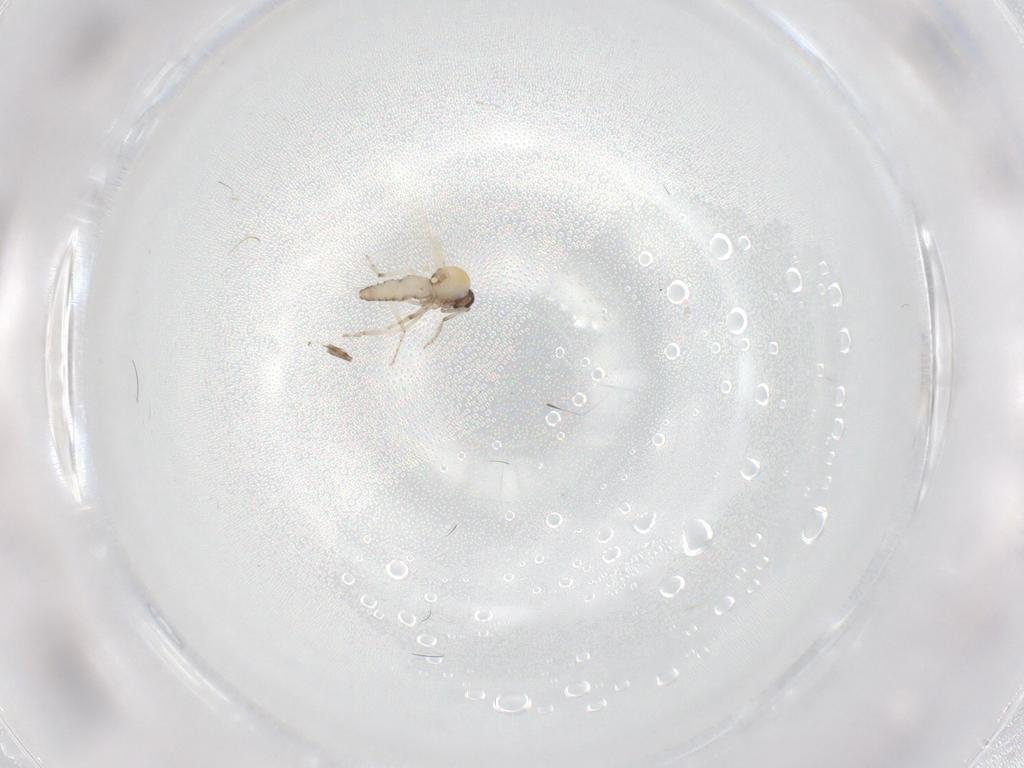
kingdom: Animalia
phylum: Arthropoda
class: Insecta
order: Diptera
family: Ceratopogonidae
